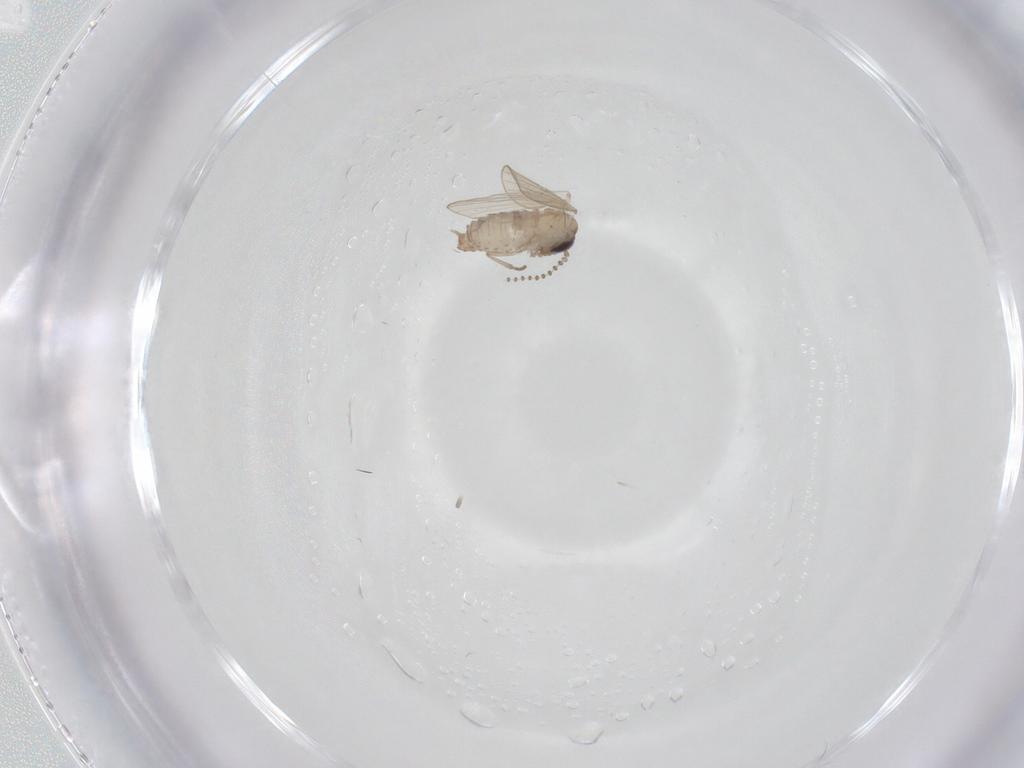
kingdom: Animalia
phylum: Arthropoda
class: Insecta
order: Diptera
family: Psychodidae
